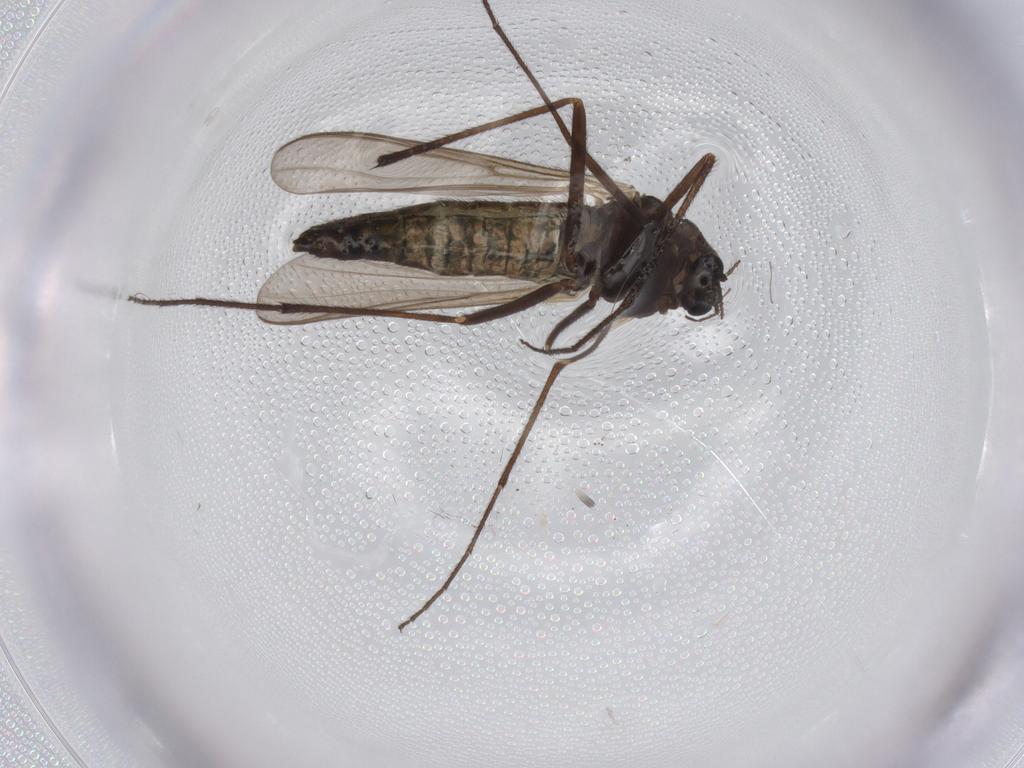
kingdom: Animalia
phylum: Arthropoda
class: Insecta
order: Diptera
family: Chironomidae
